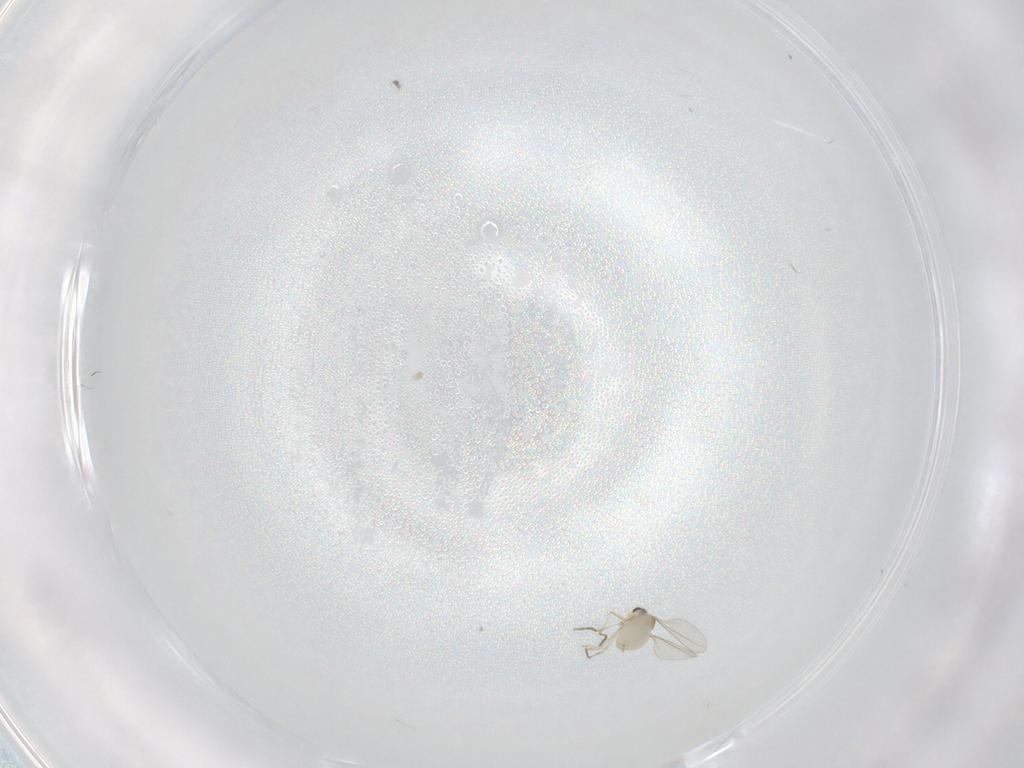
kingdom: Animalia
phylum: Arthropoda
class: Insecta
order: Diptera
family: Cecidomyiidae
